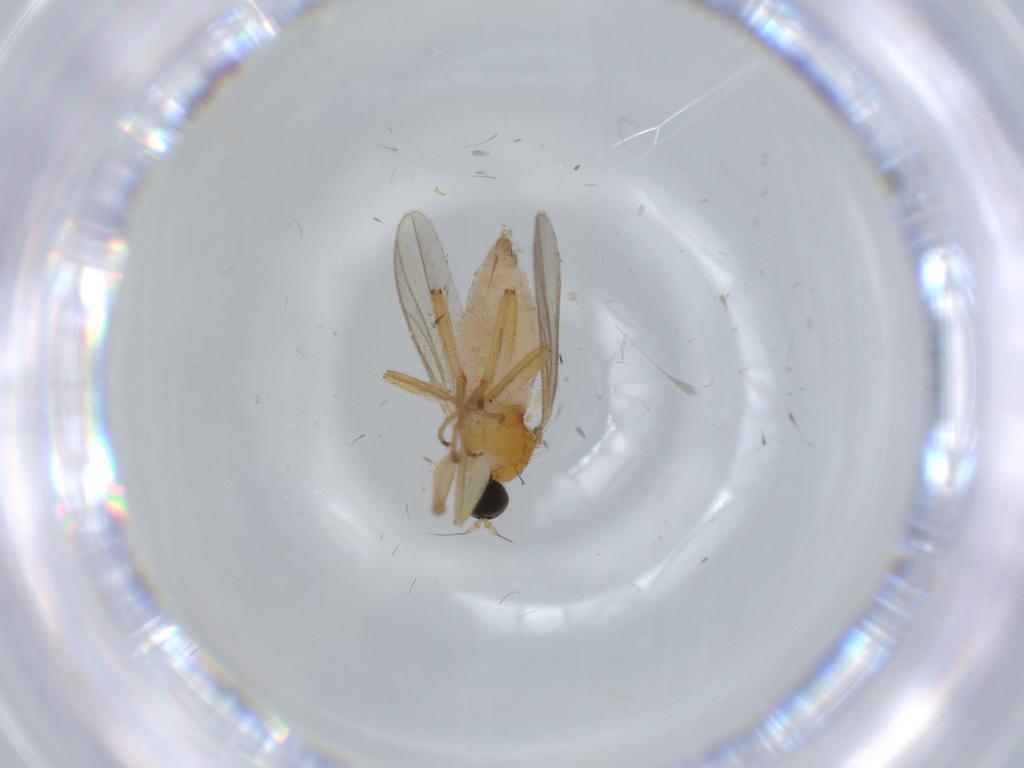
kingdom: Animalia
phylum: Arthropoda
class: Insecta
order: Diptera
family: Hybotidae
